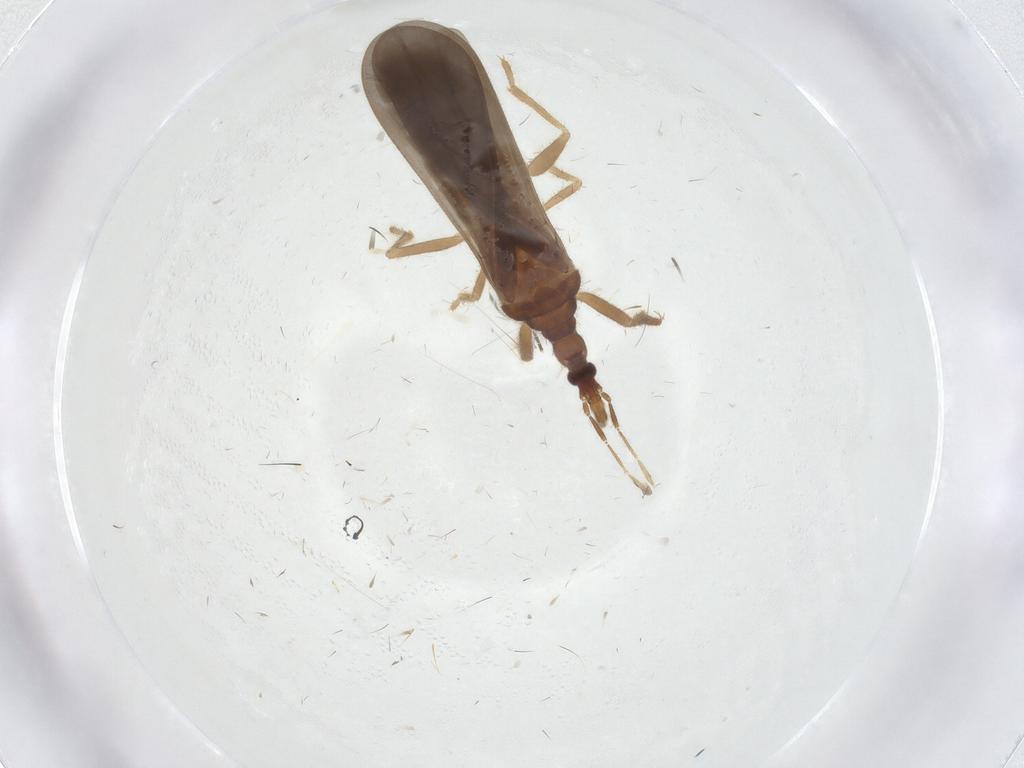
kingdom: Animalia
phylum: Arthropoda
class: Insecta
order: Hemiptera
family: Enicocephalidae
